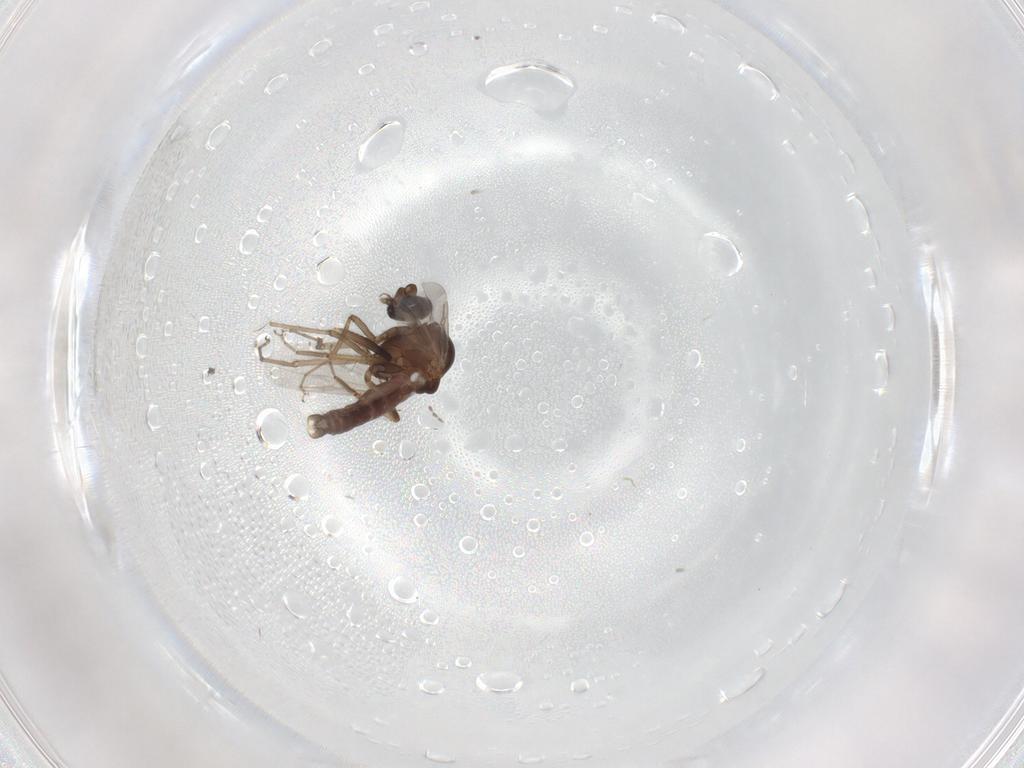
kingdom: Animalia
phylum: Arthropoda
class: Insecta
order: Diptera
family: Ceratopogonidae
